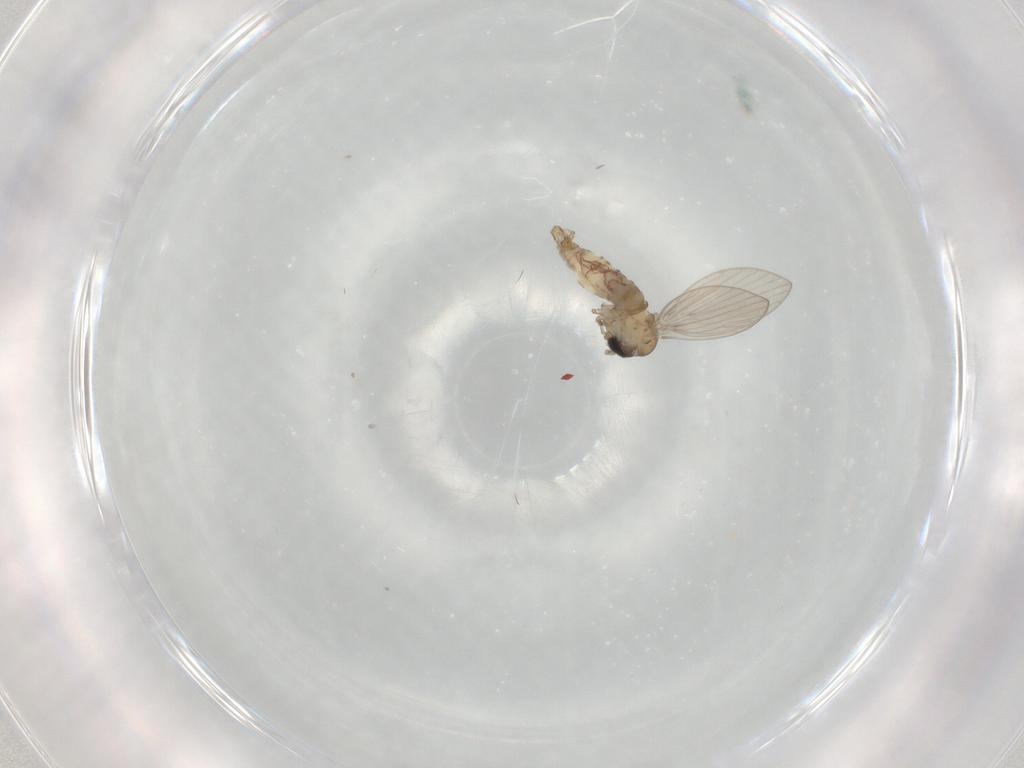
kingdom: Animalia
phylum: Arthropoda
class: Insecta
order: Diptera
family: Psychodidae
